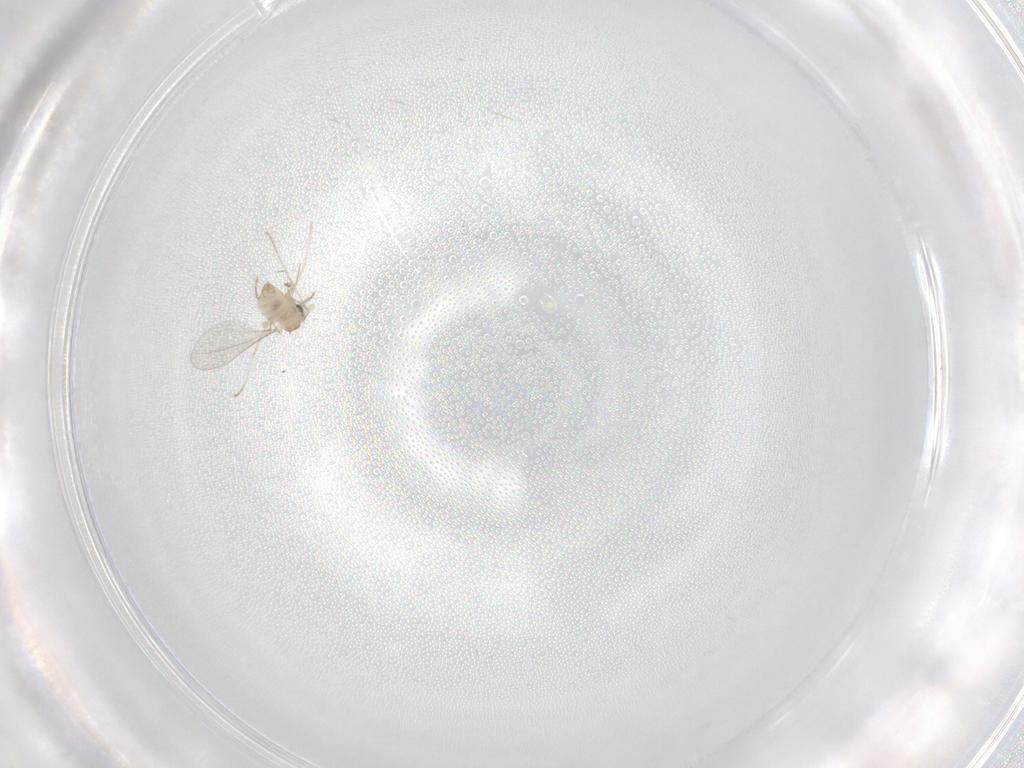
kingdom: Animalia
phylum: Arthropoda
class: Insecta
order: Diptera
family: Cecidomyiidae
